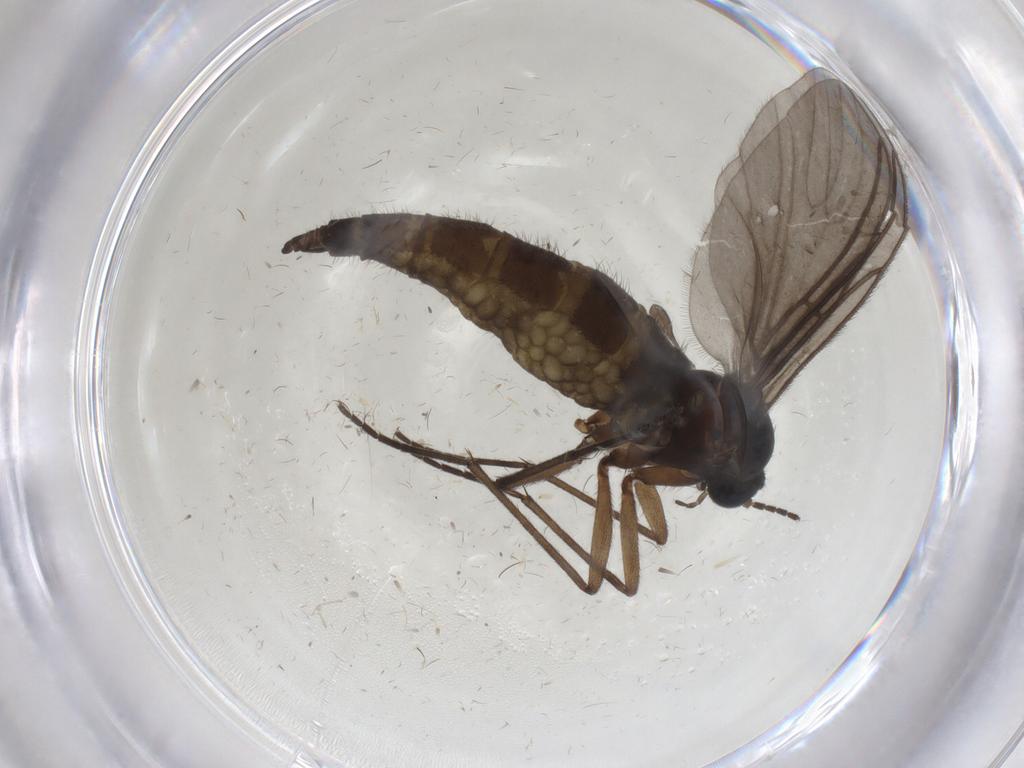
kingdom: Animalia
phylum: Arthropoda
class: Insecta
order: Diptera
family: Sciaridae
